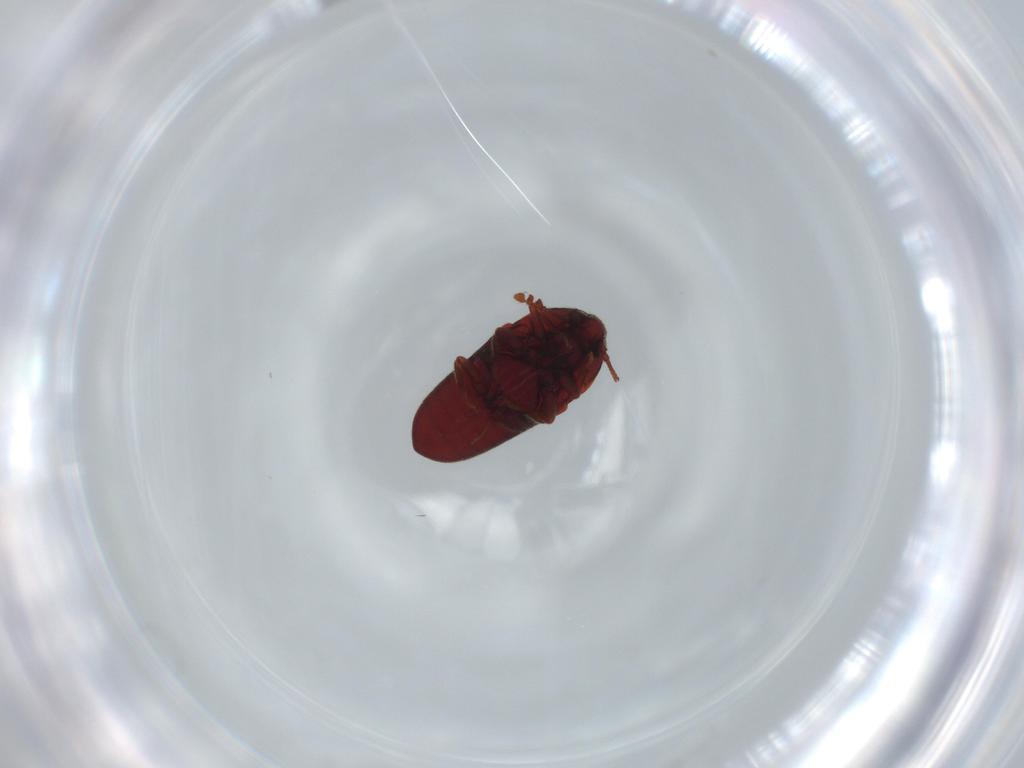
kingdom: Animalia
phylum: Arthropoda
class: Insecta
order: Coleoptera
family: Throscidae
